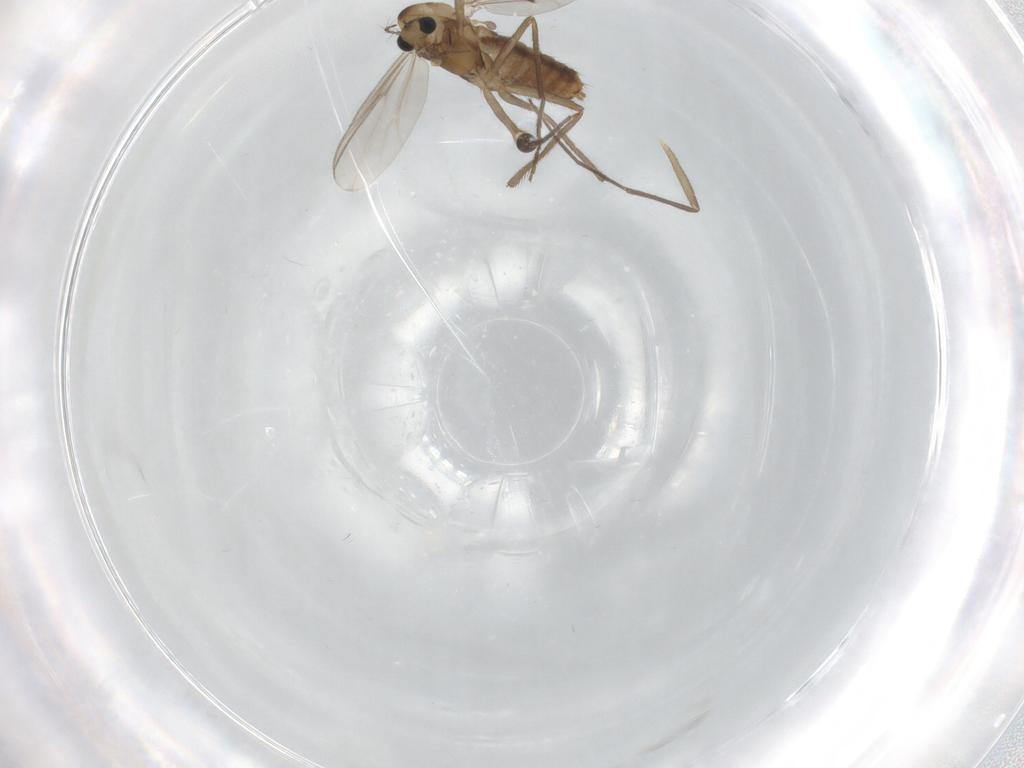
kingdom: Animalia
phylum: Arthropoda
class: Insecta
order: Diptera
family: Chironomidae
